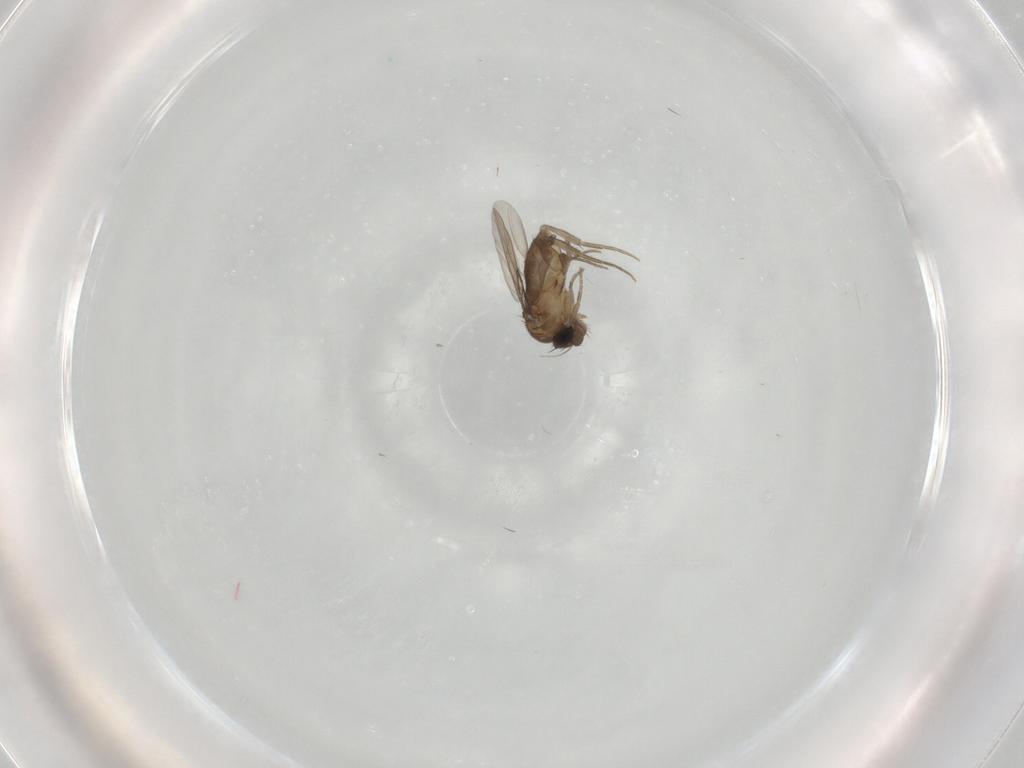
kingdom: Animalia
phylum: Arthropoda
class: Insecta
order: Diptera
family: Phoridae
